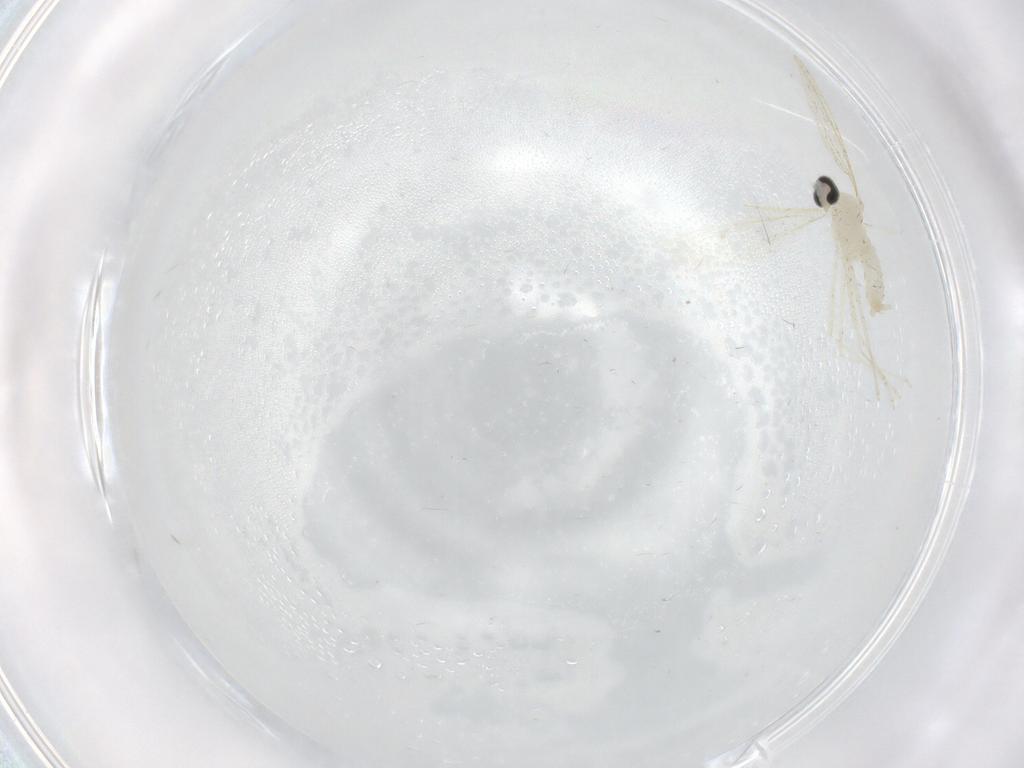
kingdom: Animalia
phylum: Arthropoda
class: Insecta
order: Diptera
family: Cecidomyiidae
